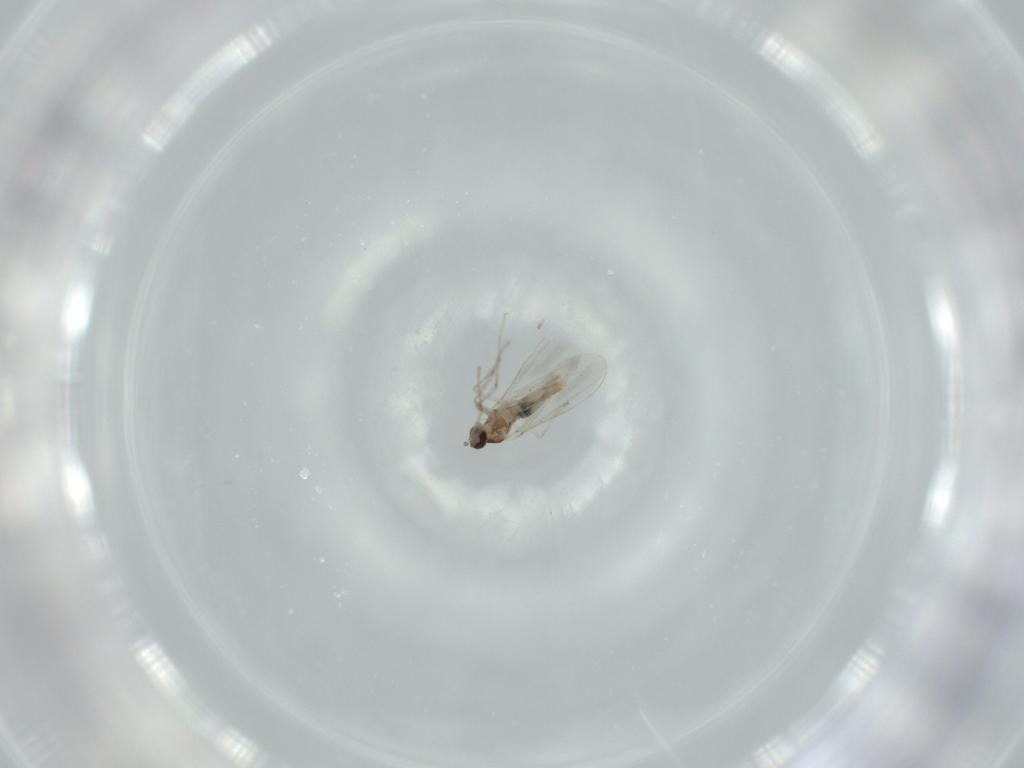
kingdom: Animalia
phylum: Arthropoda
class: Insecta
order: Diptera
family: Cecidomyiidae
